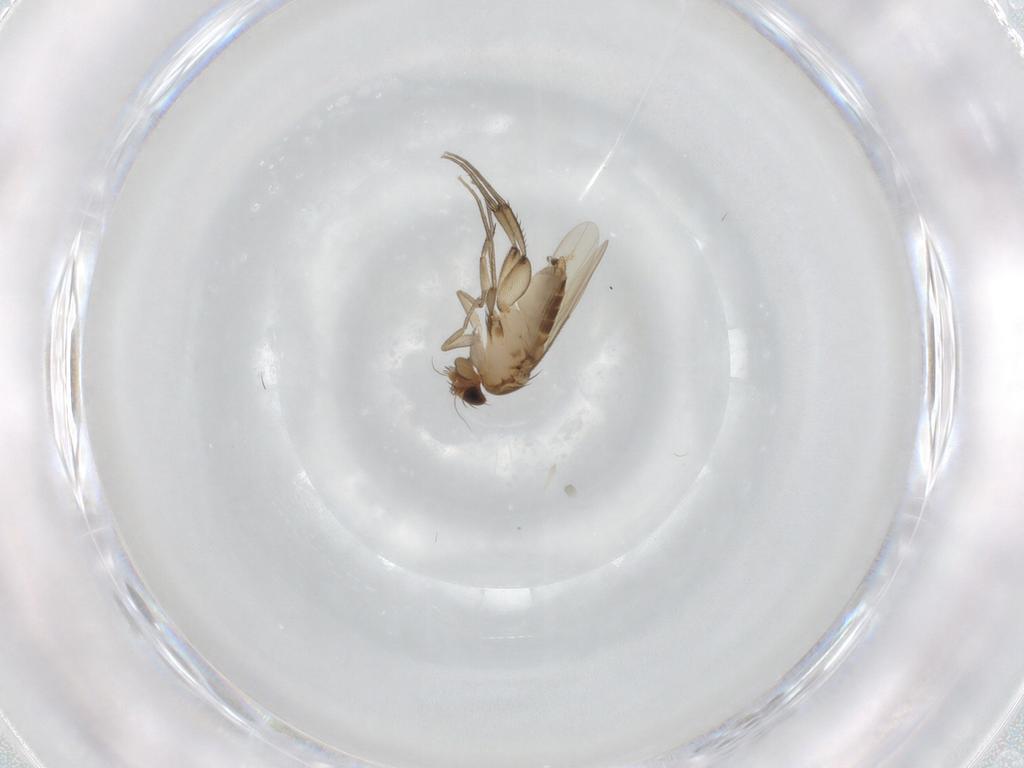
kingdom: Animalia
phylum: Arthropoda
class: Insecta
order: Diptera
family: Phoridae
